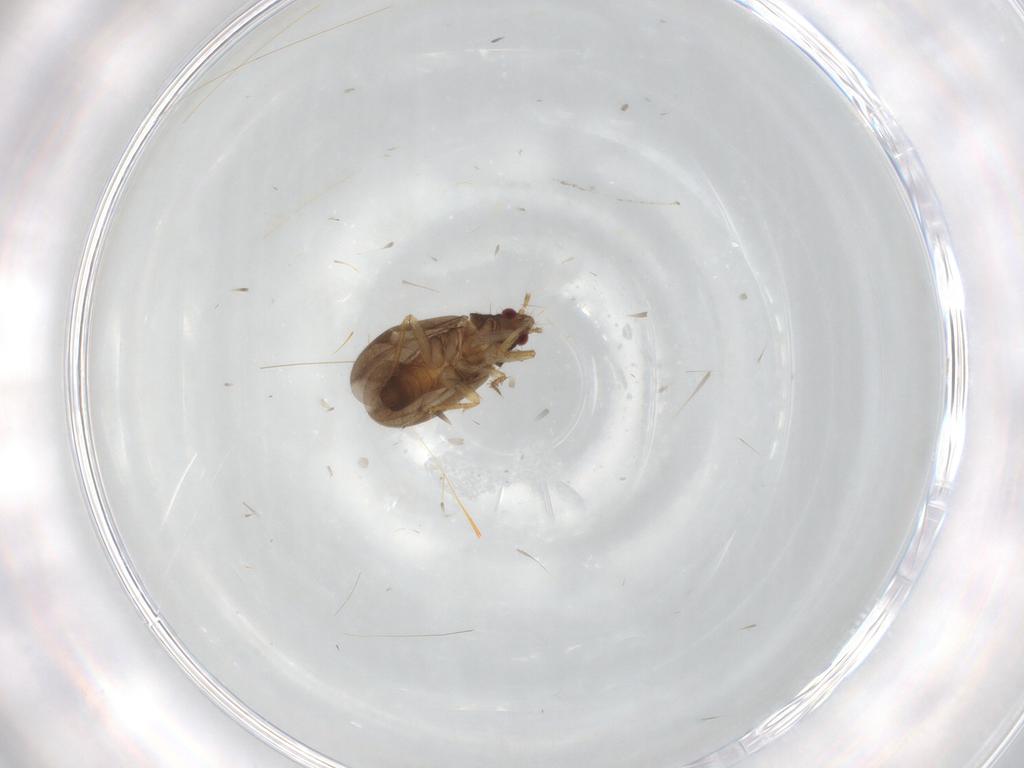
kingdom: Animalia
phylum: Arthropoda
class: Insecta
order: Hemiptera
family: Ceratocombidae
